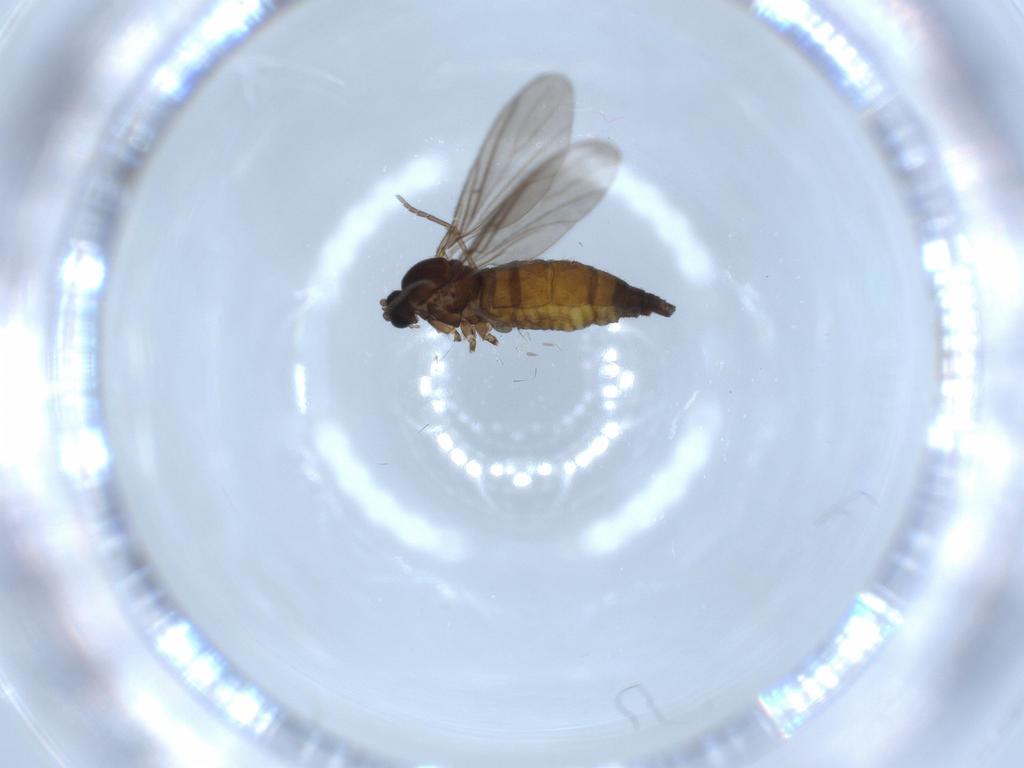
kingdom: Animalia
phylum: Arthropoda
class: Insecta
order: Diptera
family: Sciaridae
